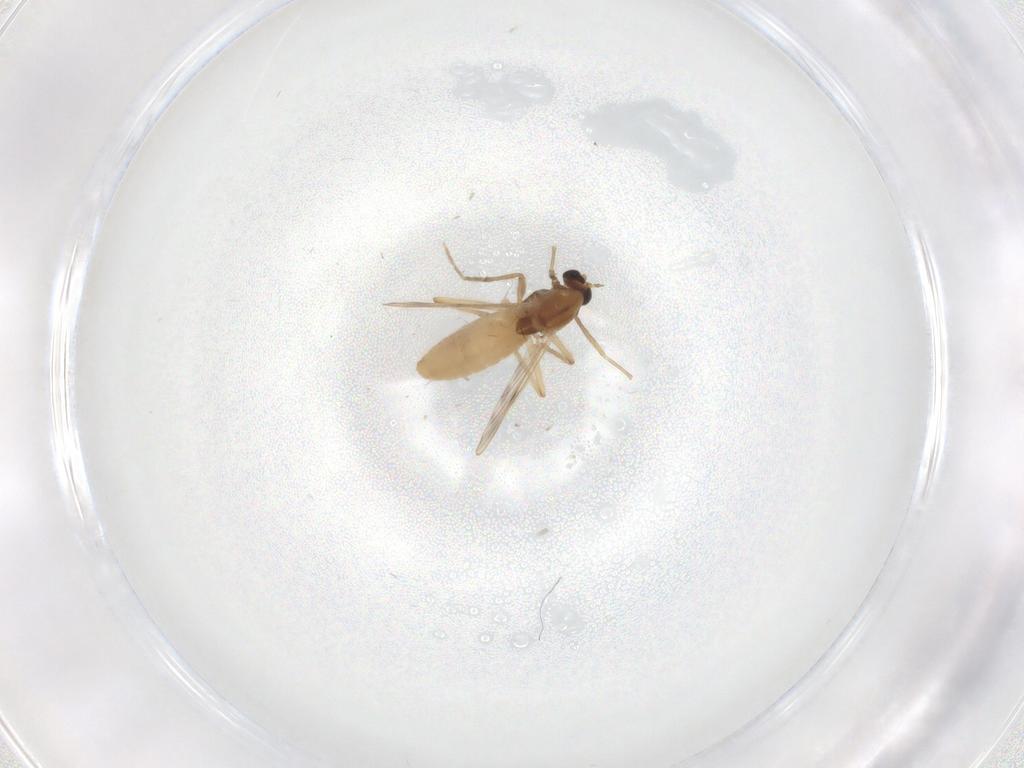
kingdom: Animalia
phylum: Arthropoda
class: Insecta
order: Diptera
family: Chironomidae
